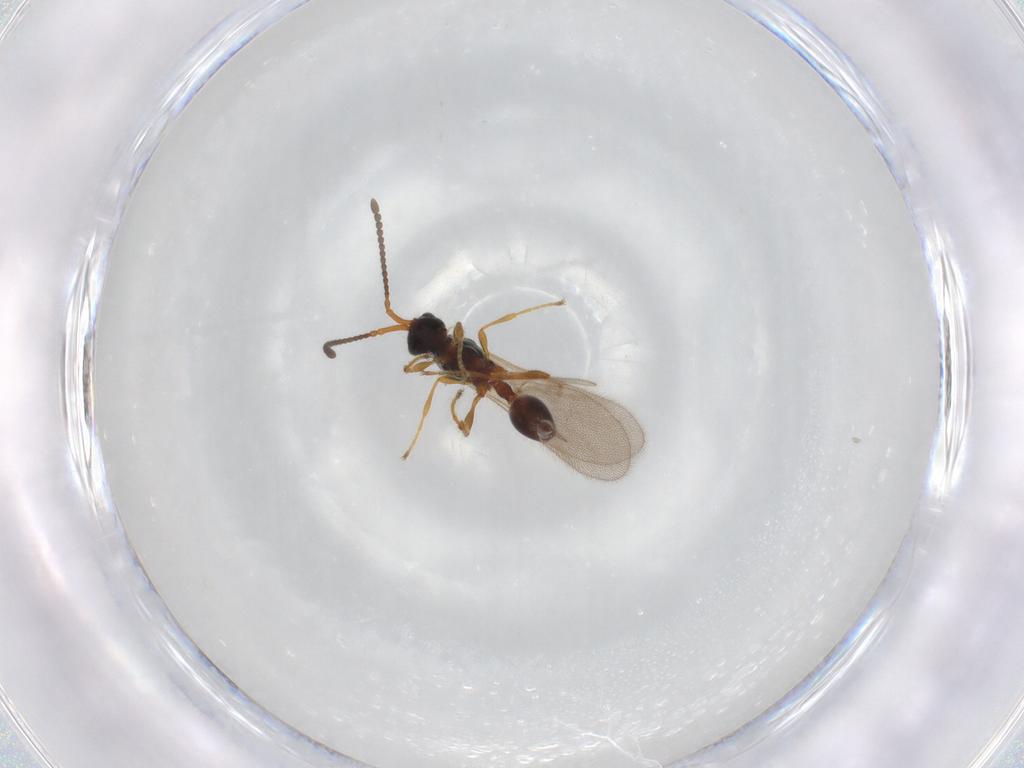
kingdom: Animalia
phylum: Arthropoda
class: Insecta
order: Hymenoptera
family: Diapriidae
